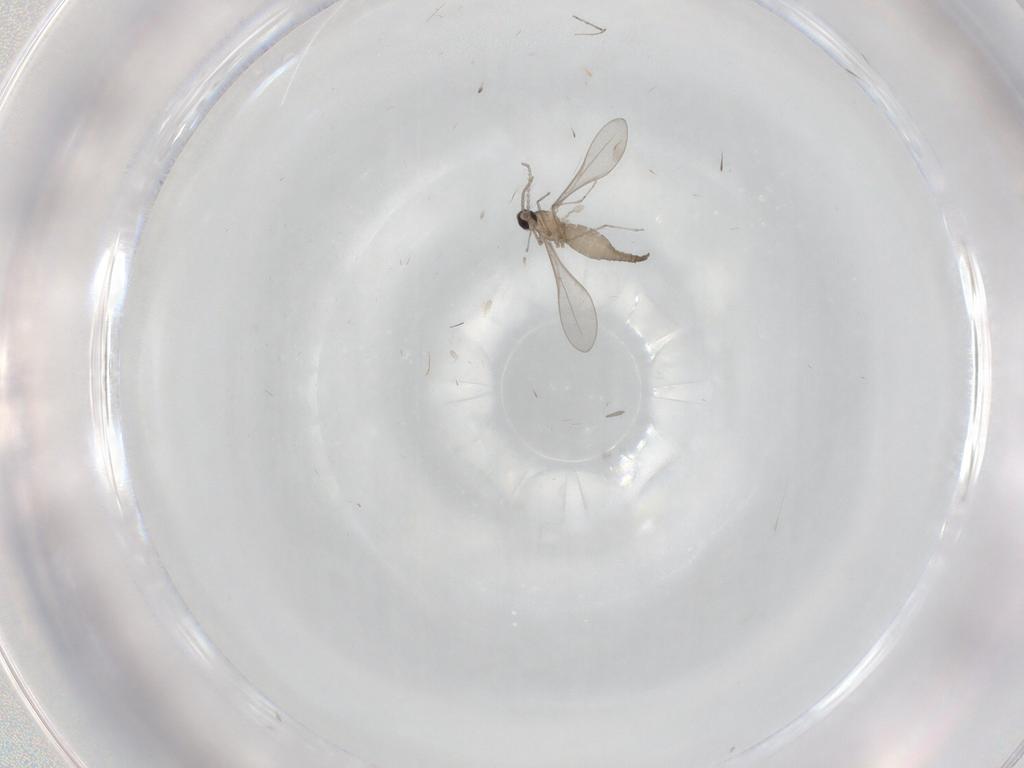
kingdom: Animalia
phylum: Arthropoda
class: Insecta
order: Diptera
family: Cecidomyiidae
